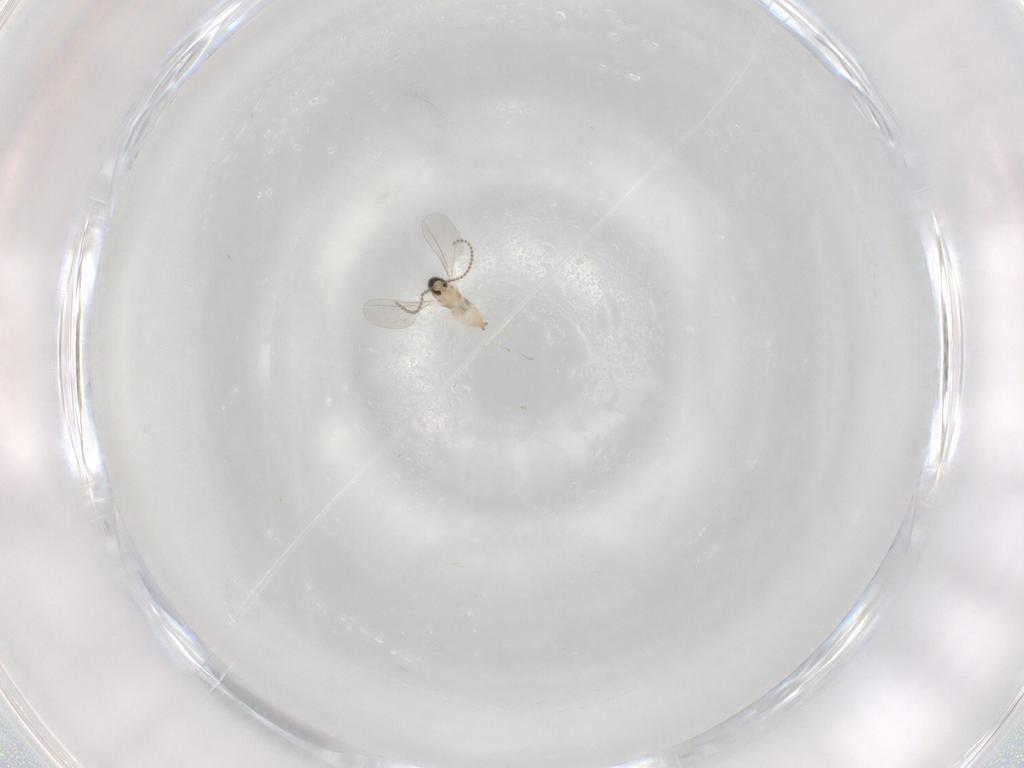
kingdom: Animalia
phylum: Arthropoda
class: Insecta
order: Diptera
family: Cecidomyiidae
